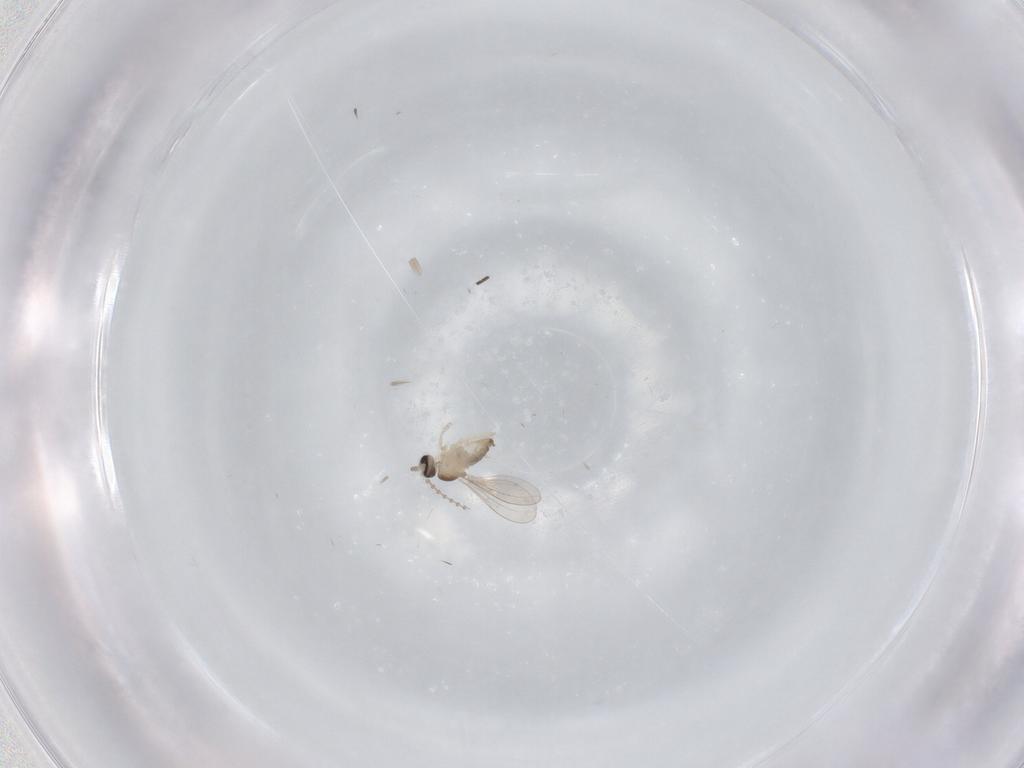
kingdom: Animalia
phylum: Arthropoda
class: Insecta
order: Diptera
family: Cecidomyiidae
